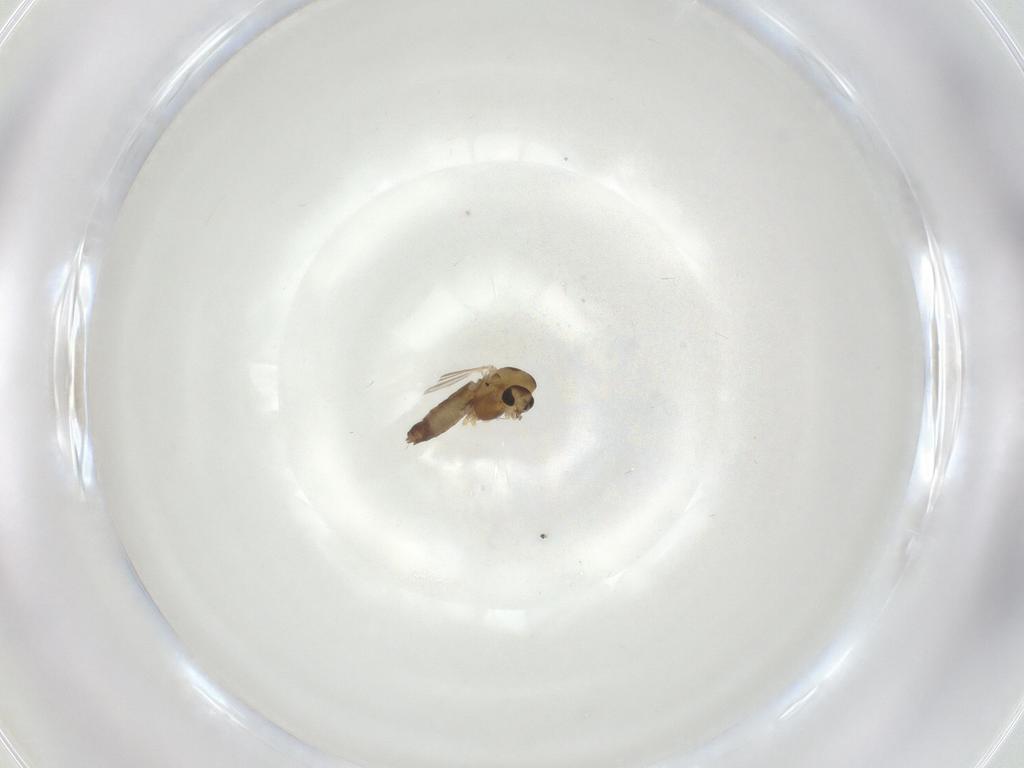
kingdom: Animalia
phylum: Arthropoda
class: Insecta
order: Diptera
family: Chironomidae
